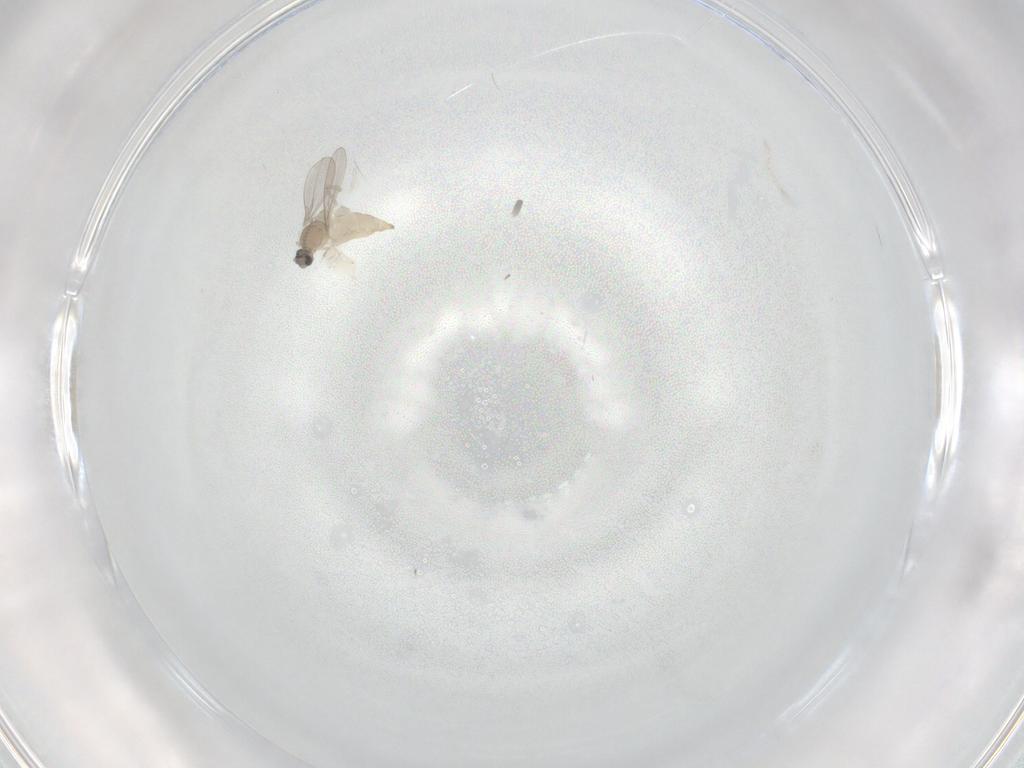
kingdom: Animalia
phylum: Arthropoda
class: Insecta
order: Diptera
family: Cecidomyiidae
